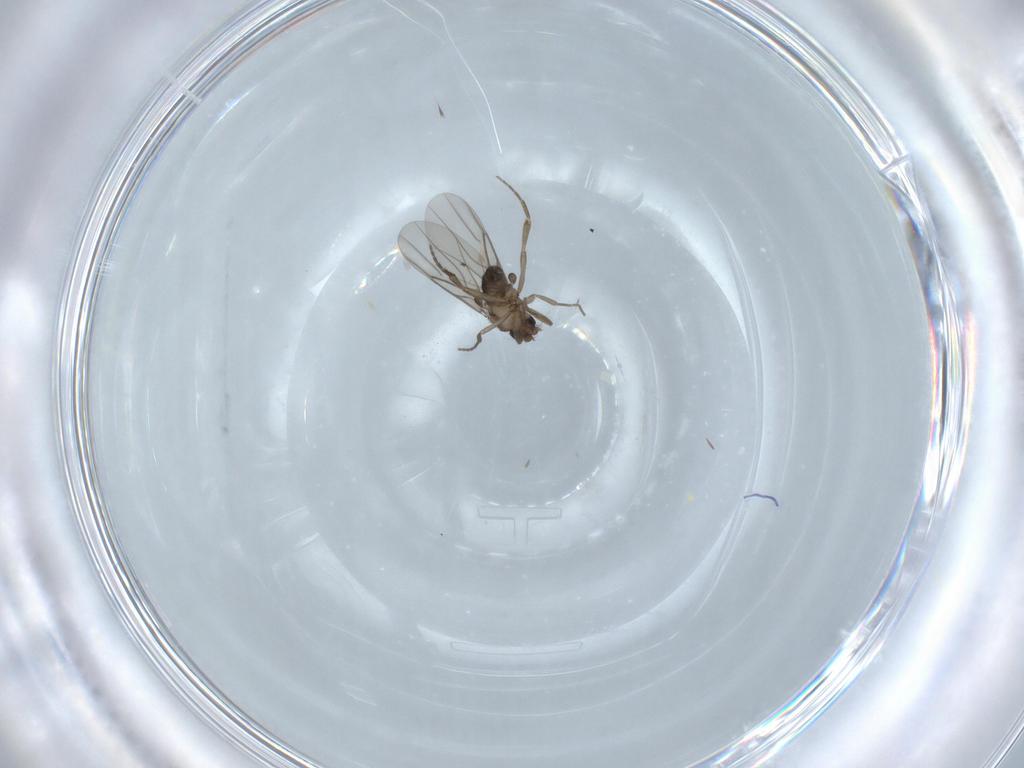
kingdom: Animalia
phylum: Arthropoda
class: Insecta
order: Diptera
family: Phoridae
